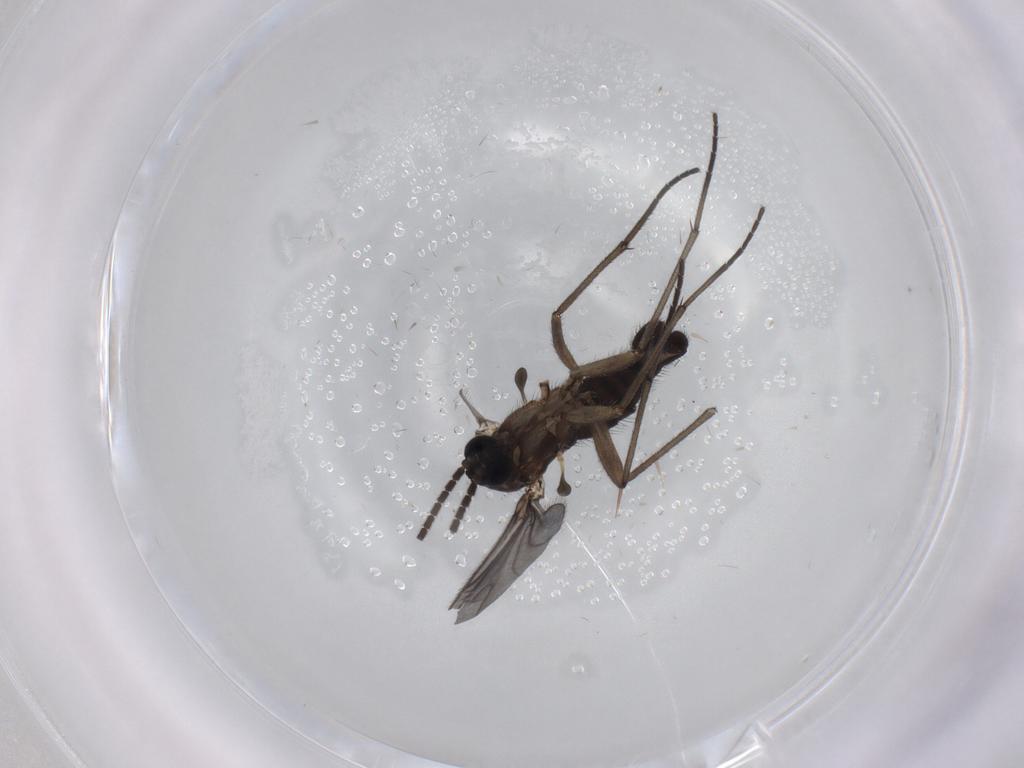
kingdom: Animalia
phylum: Arthropoda
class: Insecta
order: Diptera
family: Sciaridae
